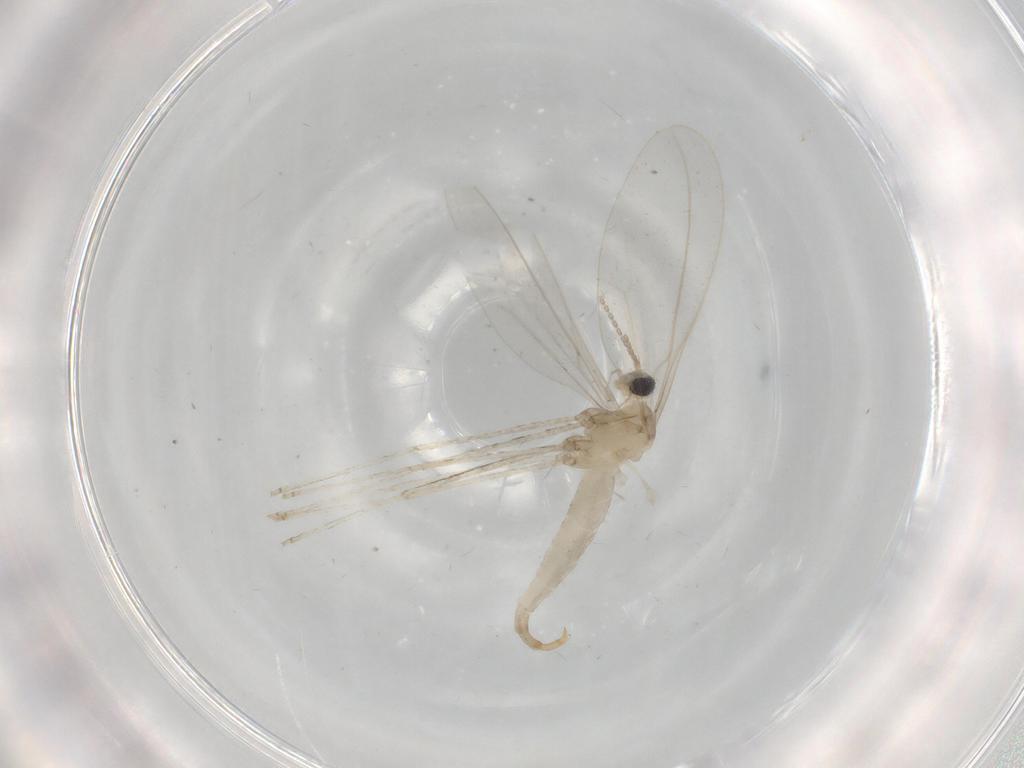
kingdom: Animalia
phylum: Arthropoda
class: Insecta
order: Diptera
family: Cecidomyiidae
